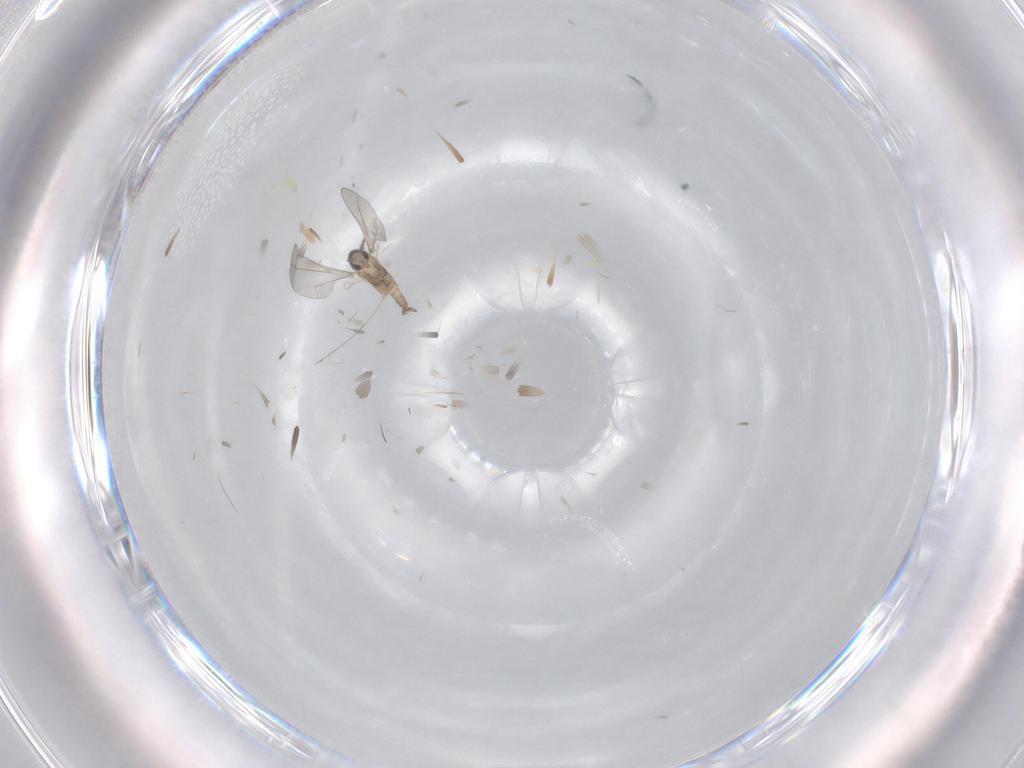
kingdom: Animalia
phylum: Arthropoda
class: Insecta
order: Diptera
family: Cecidomyiidae
